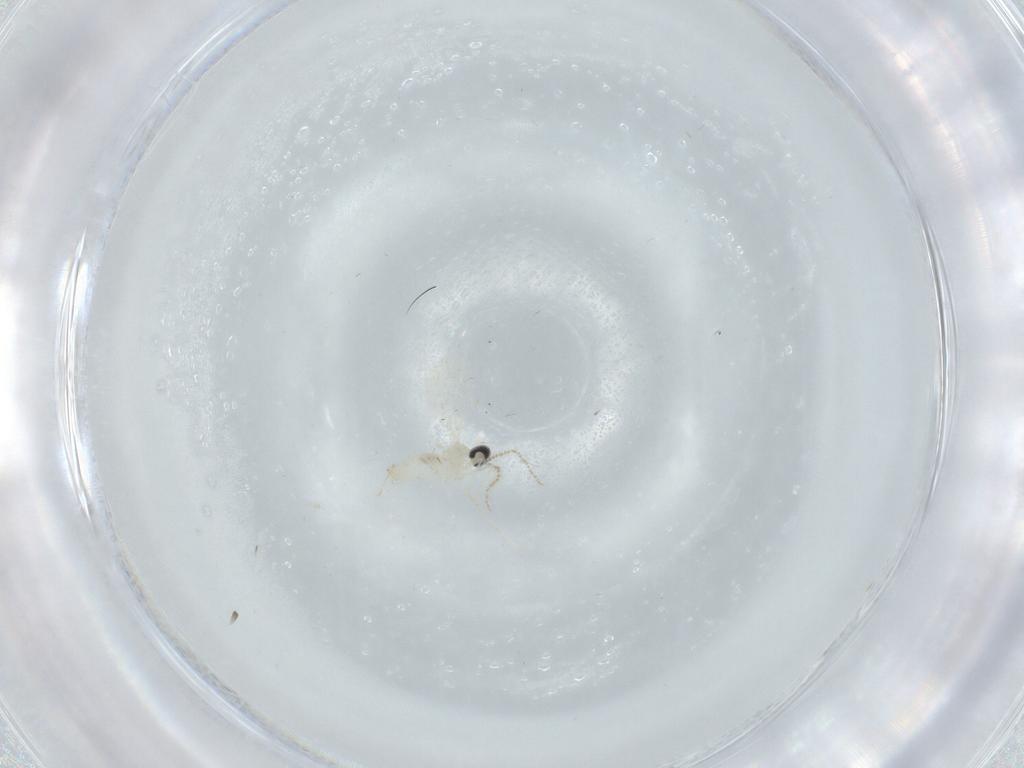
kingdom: Animalia
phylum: Arthropoda
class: Insecta
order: Diptera
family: Cecidomyiidae
